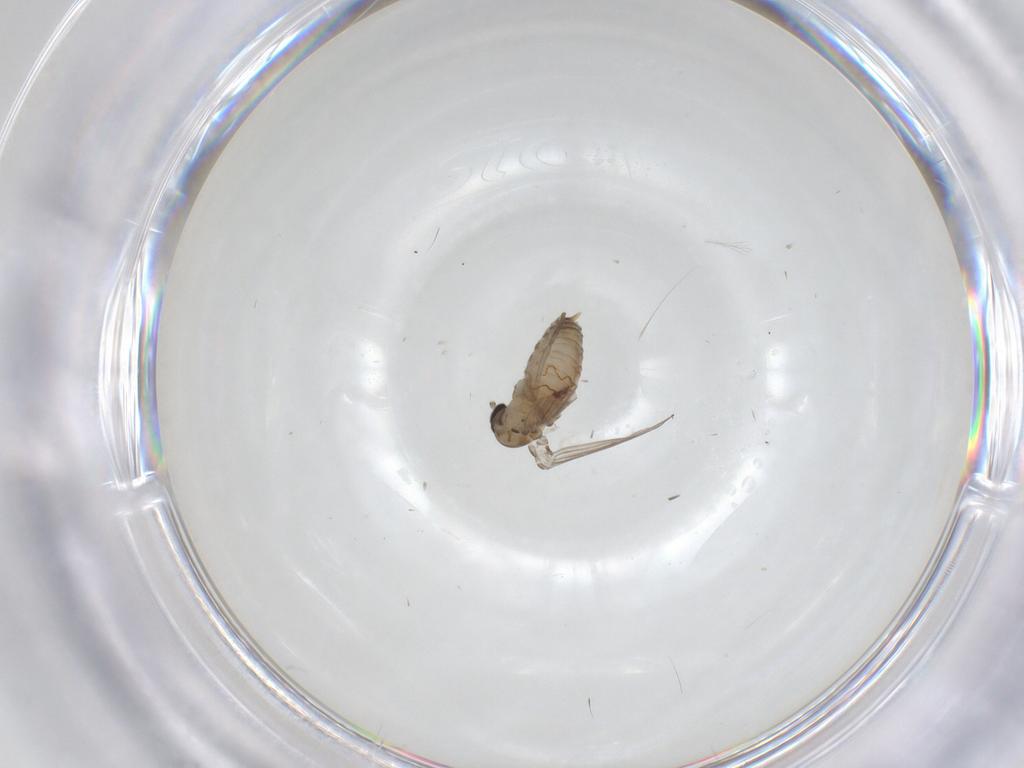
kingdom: Animalia
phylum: Arthropoda
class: Insecta
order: Diptera
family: Psychodidae
